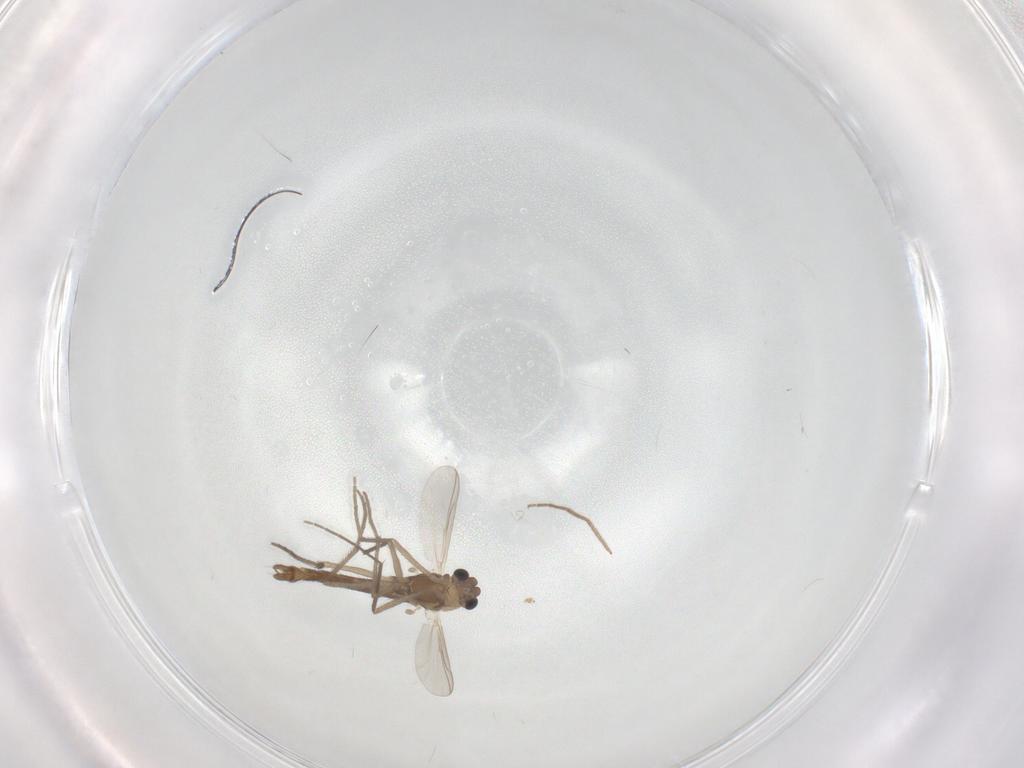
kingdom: Animalia
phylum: Arthropoda
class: Insecta
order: Diptera
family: Chironomidae
